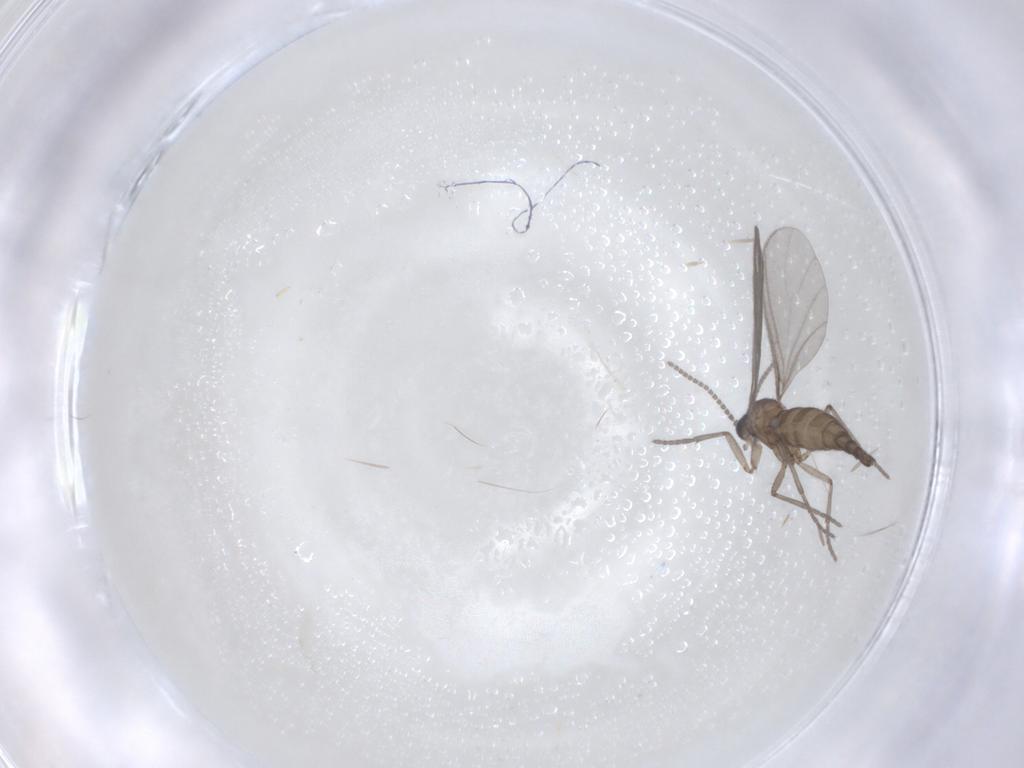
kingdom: Animalia
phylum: Arthropoda
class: Insecta
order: Diptera
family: Sciaridae
